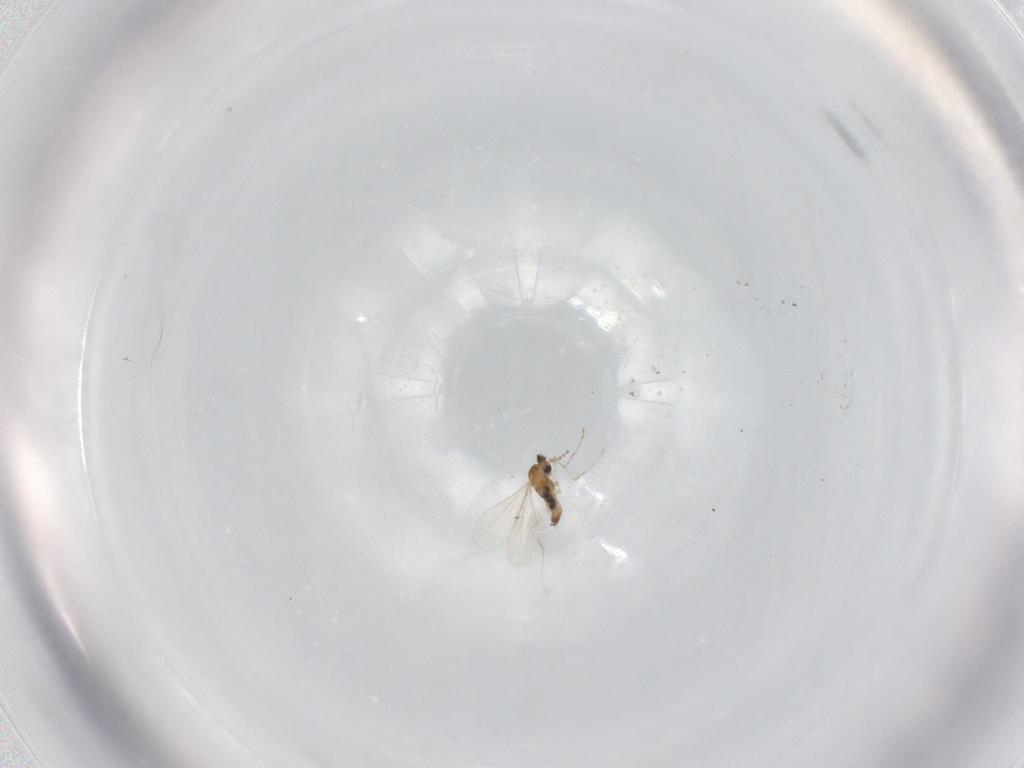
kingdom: Animalia
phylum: Arthropoda
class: Insecta
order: Diptera
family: Cecidomyiidae
